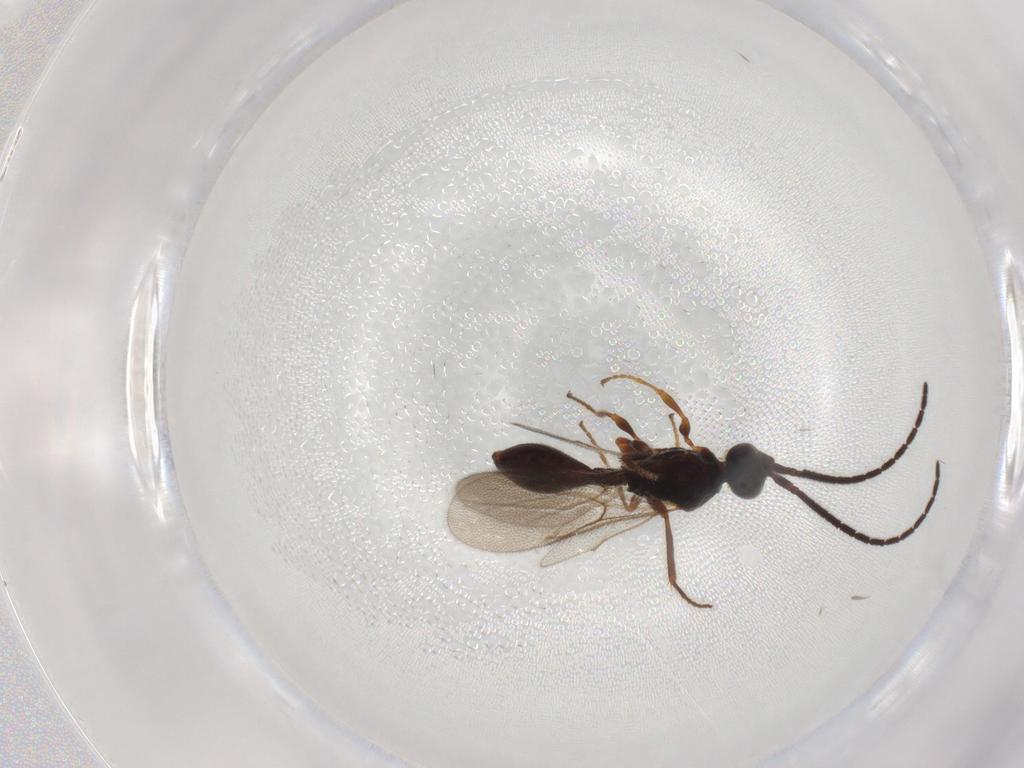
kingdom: Animalia
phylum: Arthropoda
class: Insecta
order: Hymenoptera
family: Diapriidae
